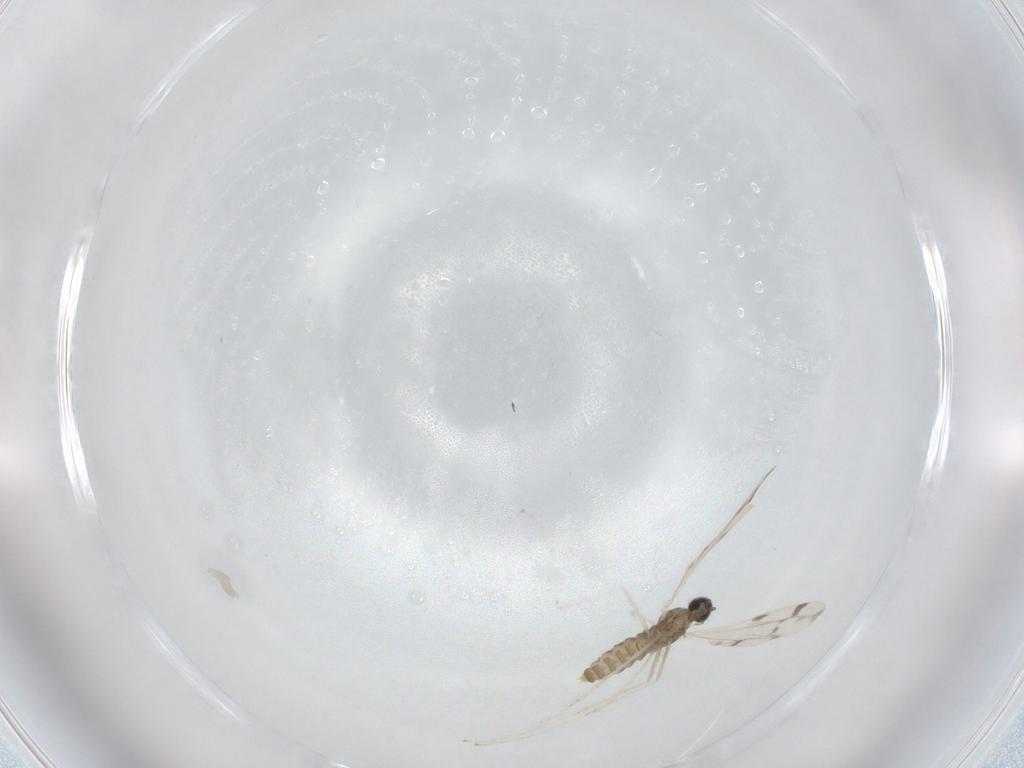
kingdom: Animalia
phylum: Arthropoda
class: Insecta
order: Diptera
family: Cecidomyiidae
